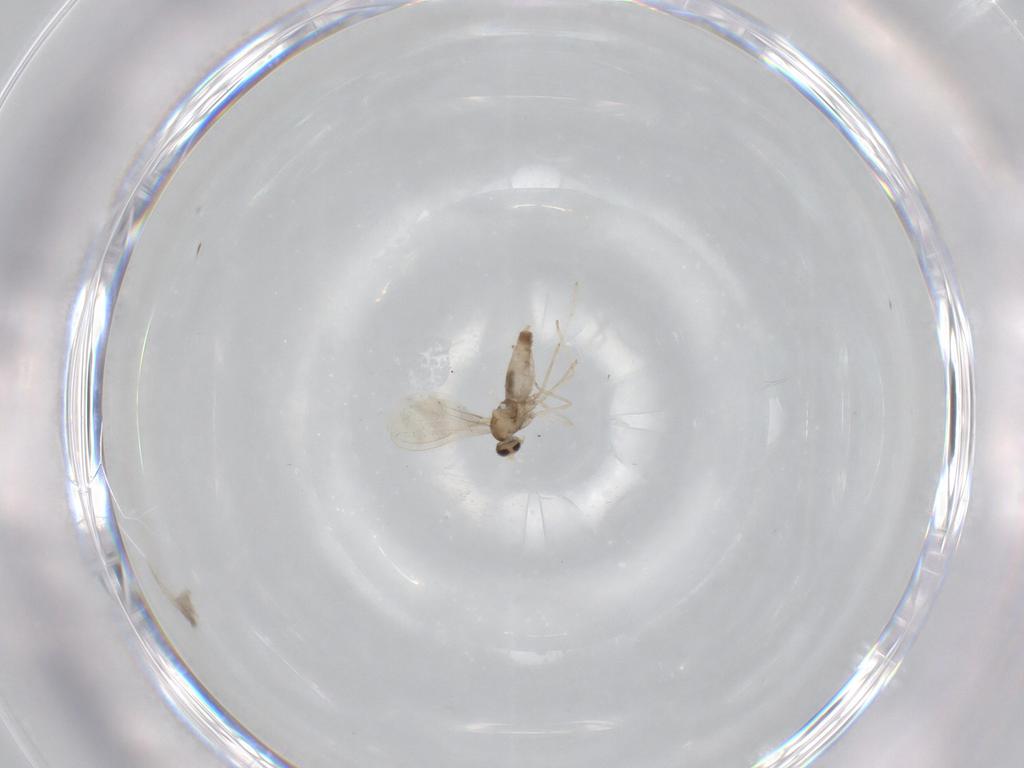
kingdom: Animalia
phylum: Arthropoda
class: Insecta
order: Diptera
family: Cecidomyiidae
